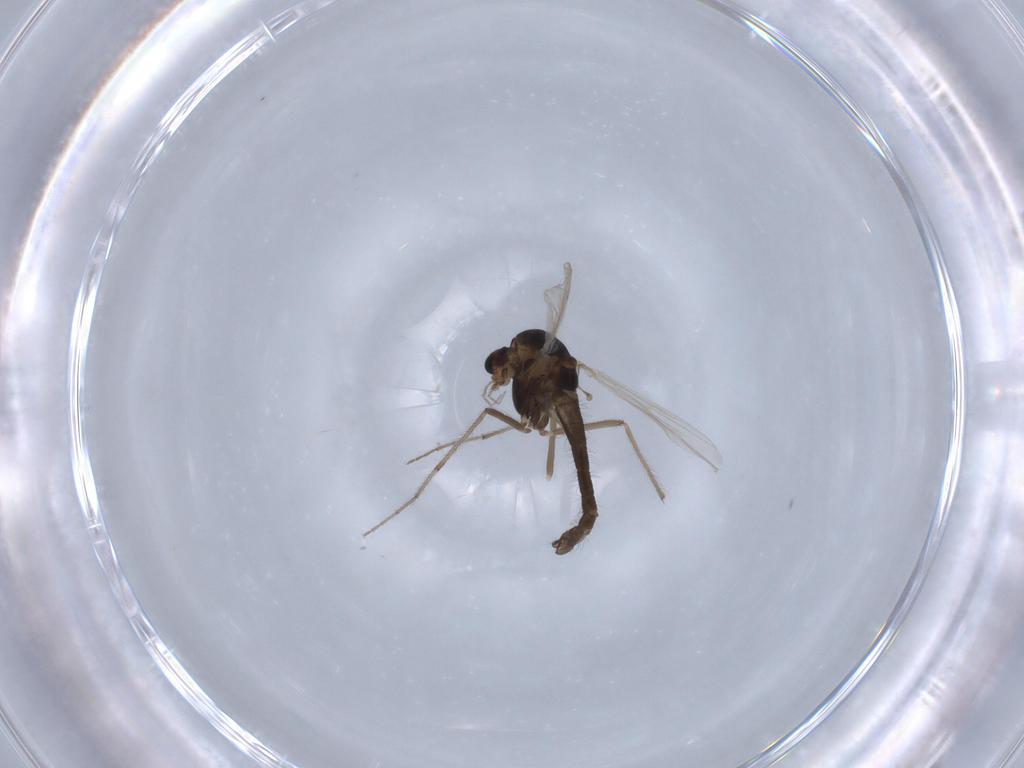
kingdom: Animalia
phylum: Arthropoda
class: Insecta
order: Diptera
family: Chironomidae
